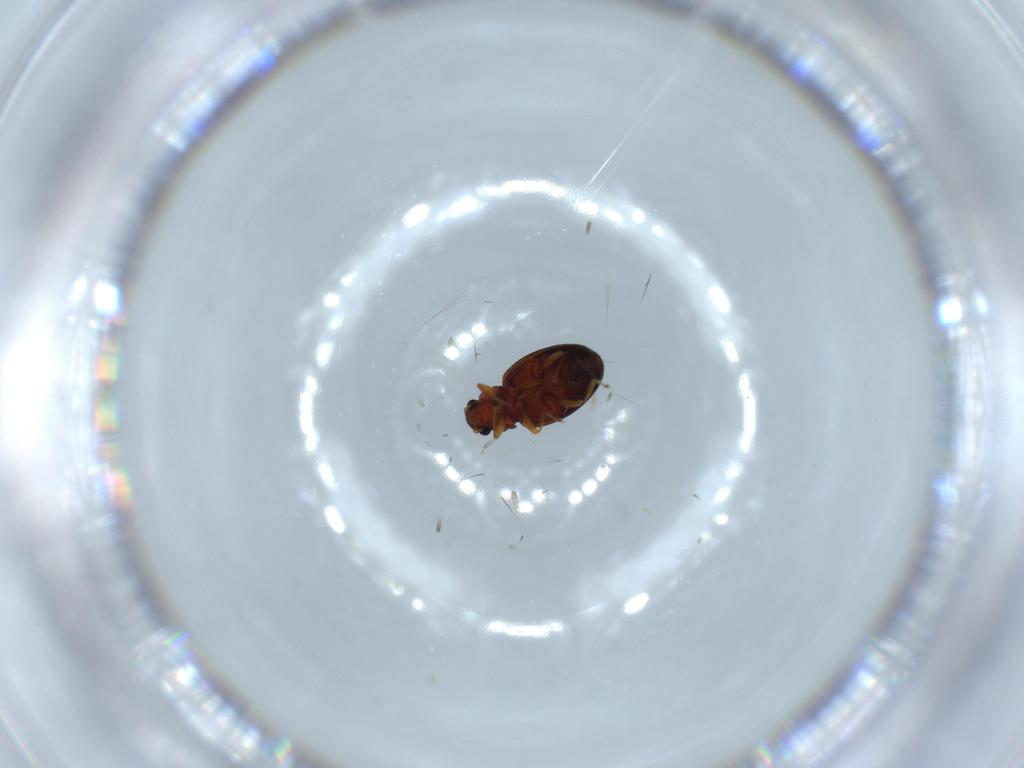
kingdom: Animalia
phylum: Arthropoda
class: Insecta
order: Coleoptera
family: Latridiidae
